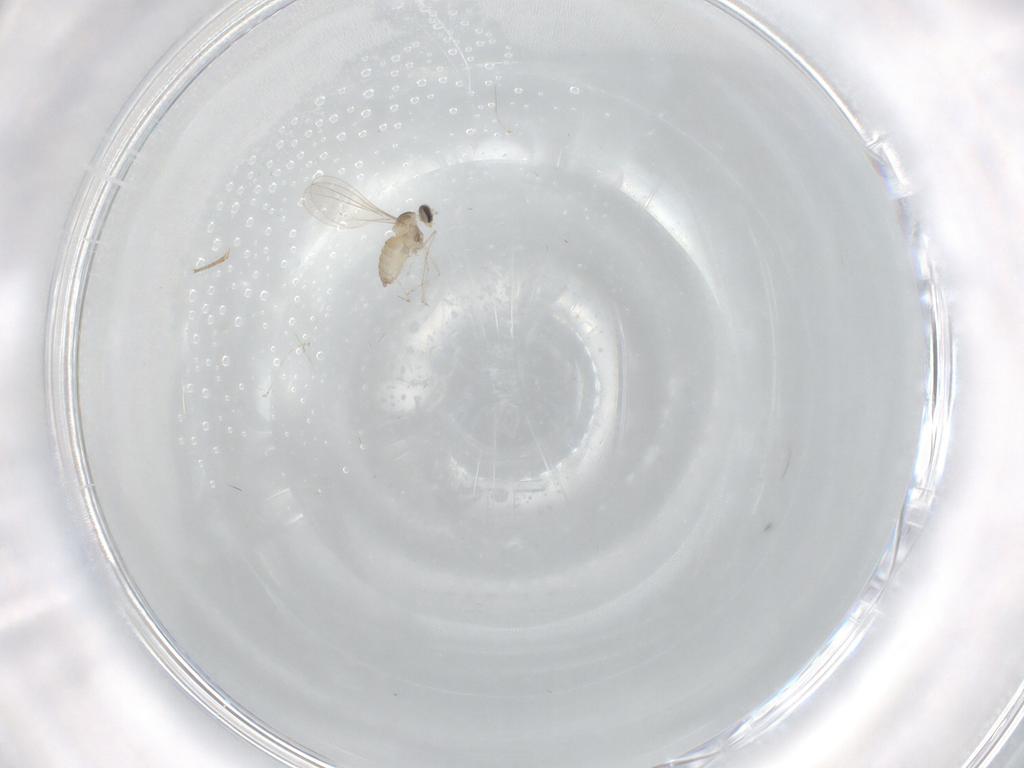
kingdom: Animalia
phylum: Arthropoda
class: Insecta
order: Diptera
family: Cecidomyiidae
